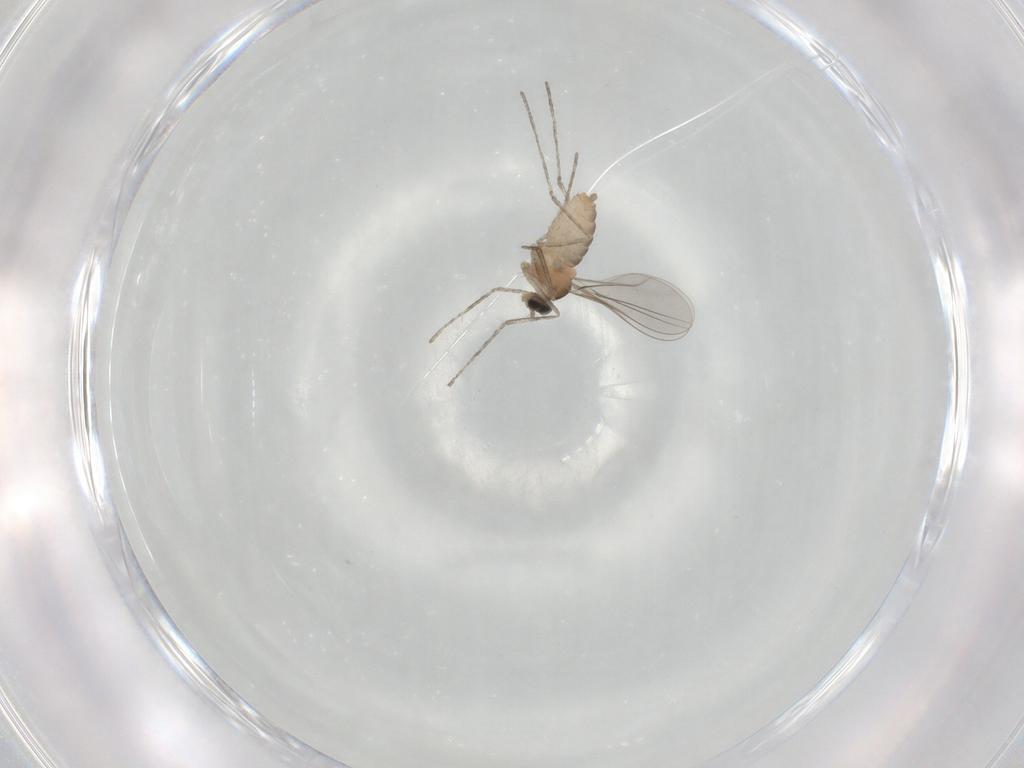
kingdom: Animalia
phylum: Arthropoda
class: Insecta
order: Diptera
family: Cecidomyiidae
